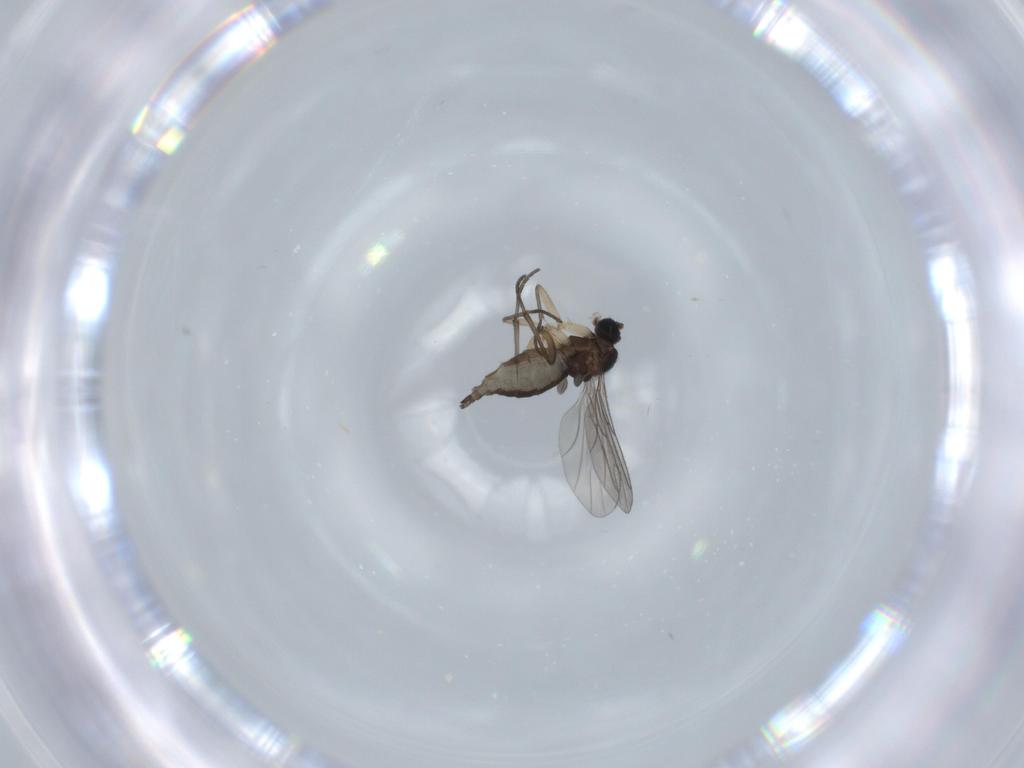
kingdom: Animalia
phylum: Arthropoda
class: Insecta
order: Diptera
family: Sciaridae
